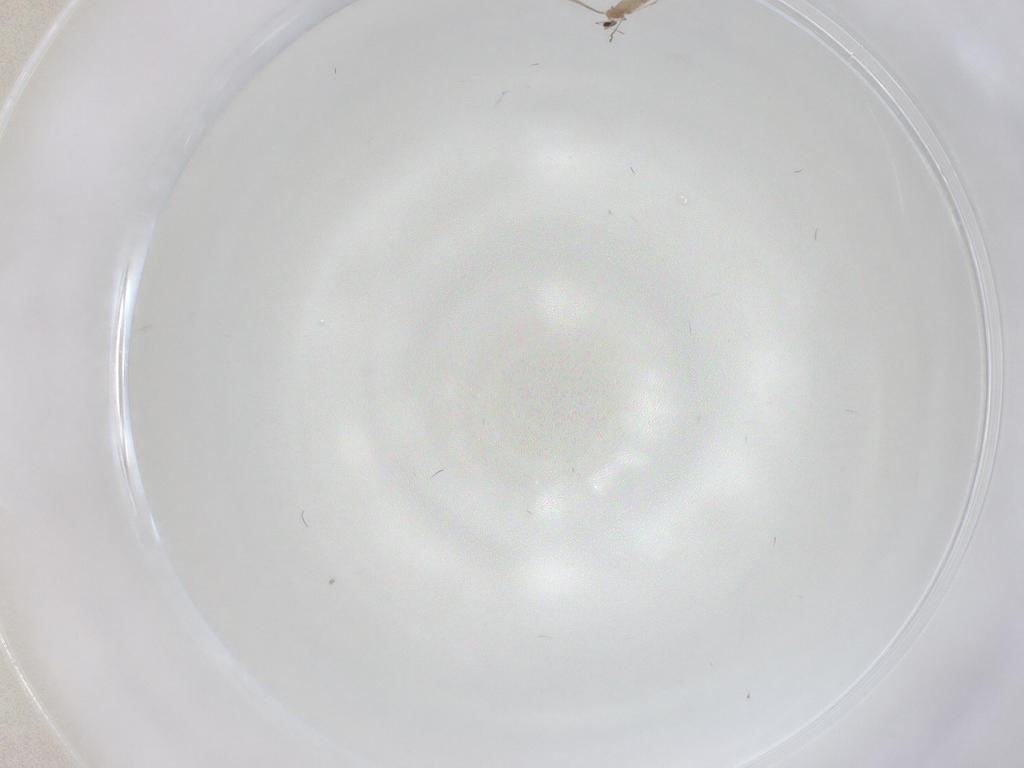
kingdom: Animalia
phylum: Arthropoda
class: Insecta
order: Diptera
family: Cecidomyiidae
